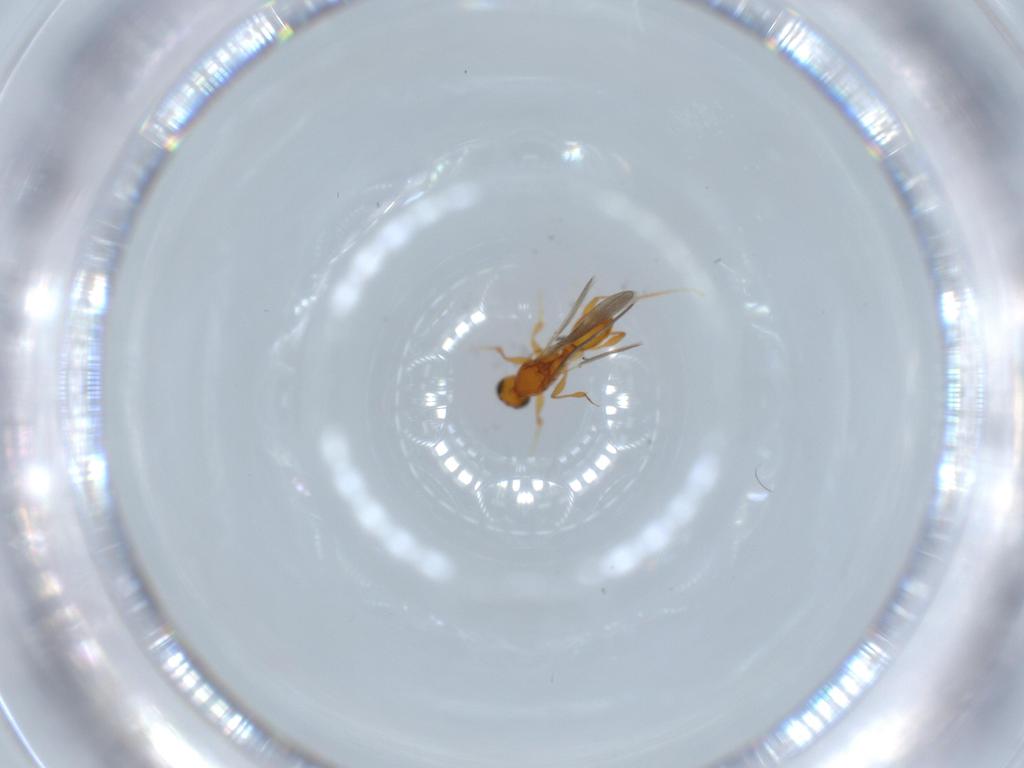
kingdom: Animalia
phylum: Arthropoda
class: Insecta
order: Hymenoptera
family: Platygastridae
